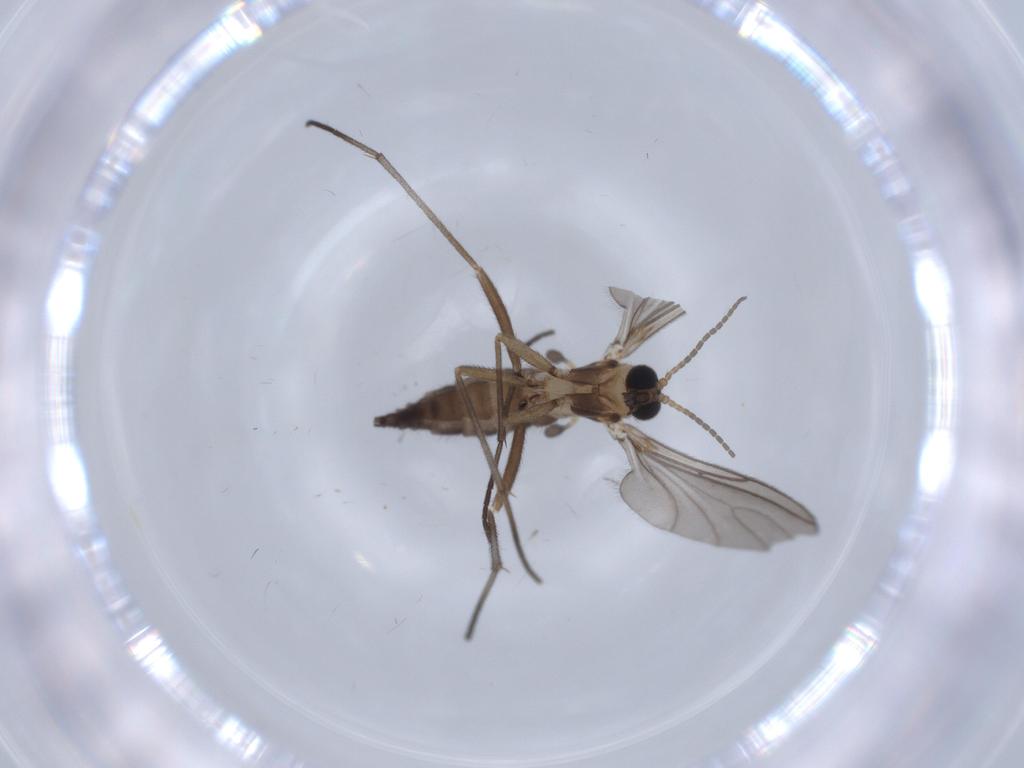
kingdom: Animalia
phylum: Arthropoda
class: Insecta
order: Diptera
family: Sciaridae
